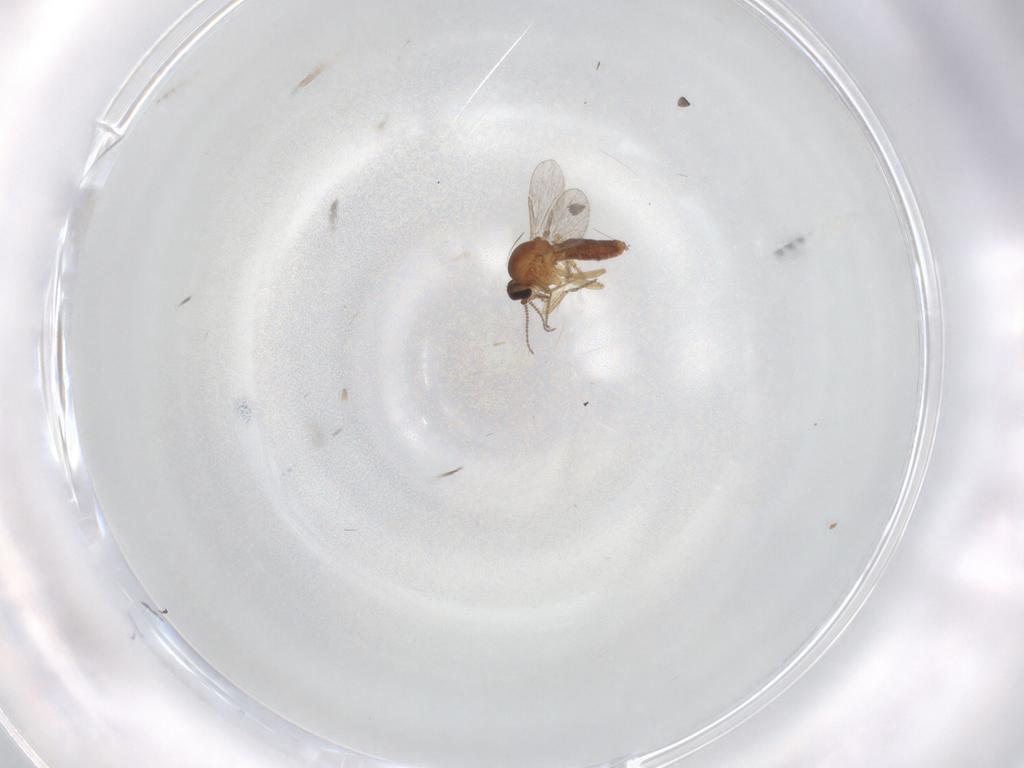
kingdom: Animalia
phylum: Arthropoda
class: Insecta
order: Diptera
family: Ceratopogonidae
